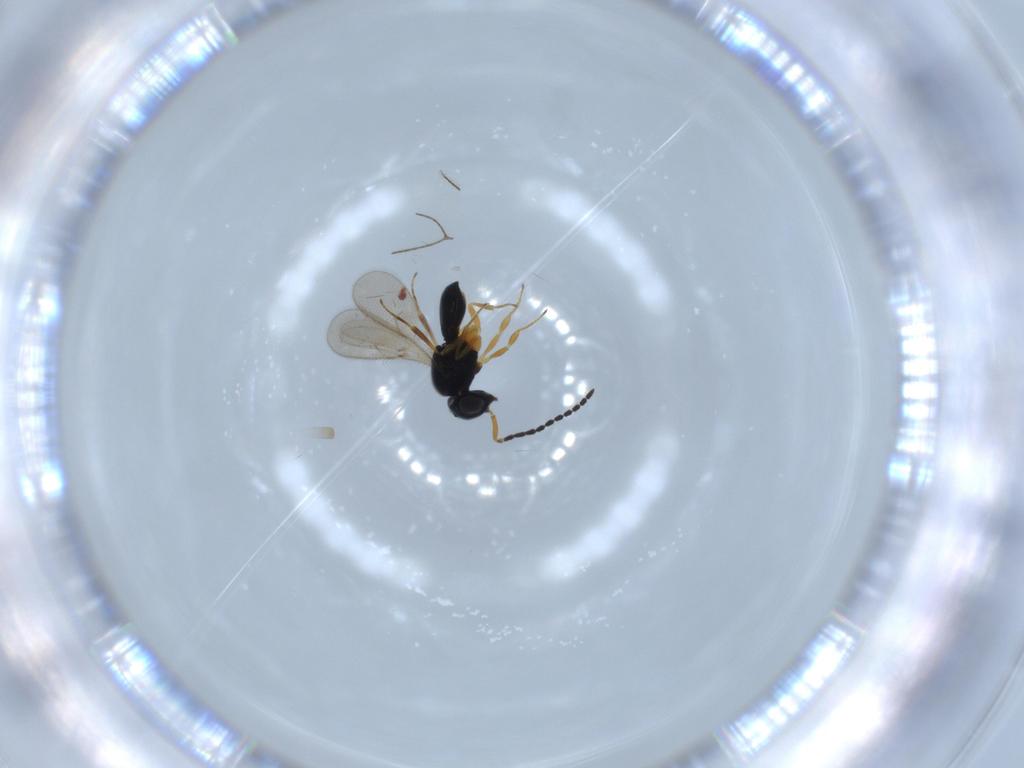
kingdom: Animalia
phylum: Arthropoda
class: Insecta
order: Hymenoptera
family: Scelionidae
